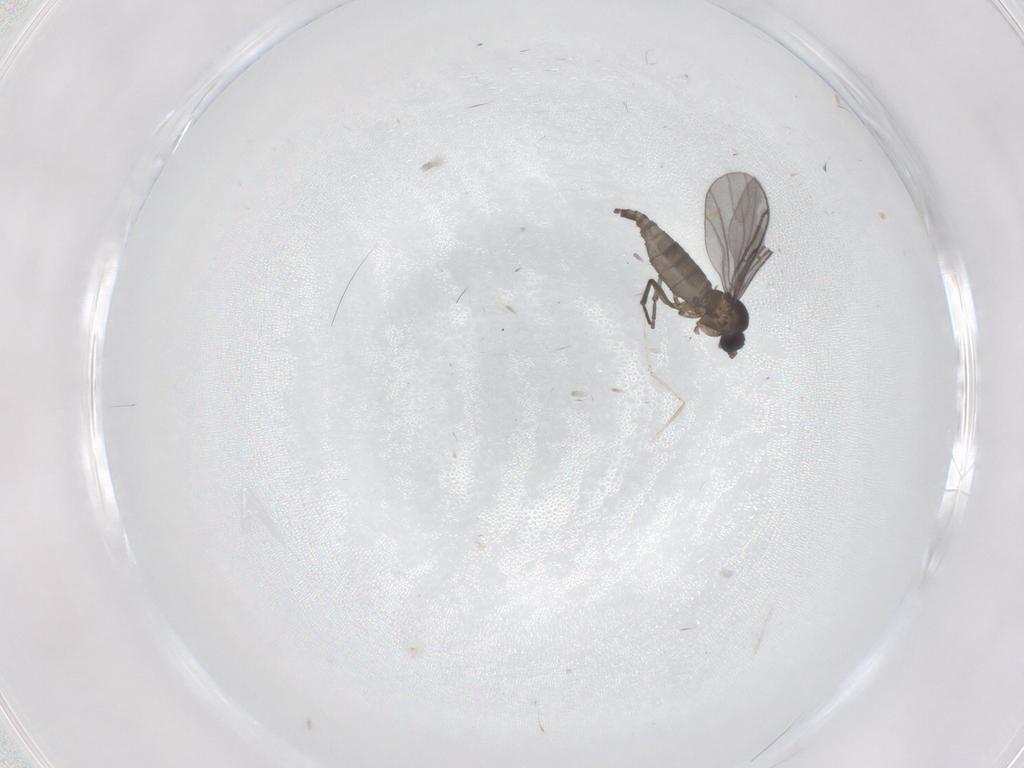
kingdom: Animalia
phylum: Arthropoda
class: Insecta
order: Diptera
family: Sciaridae
